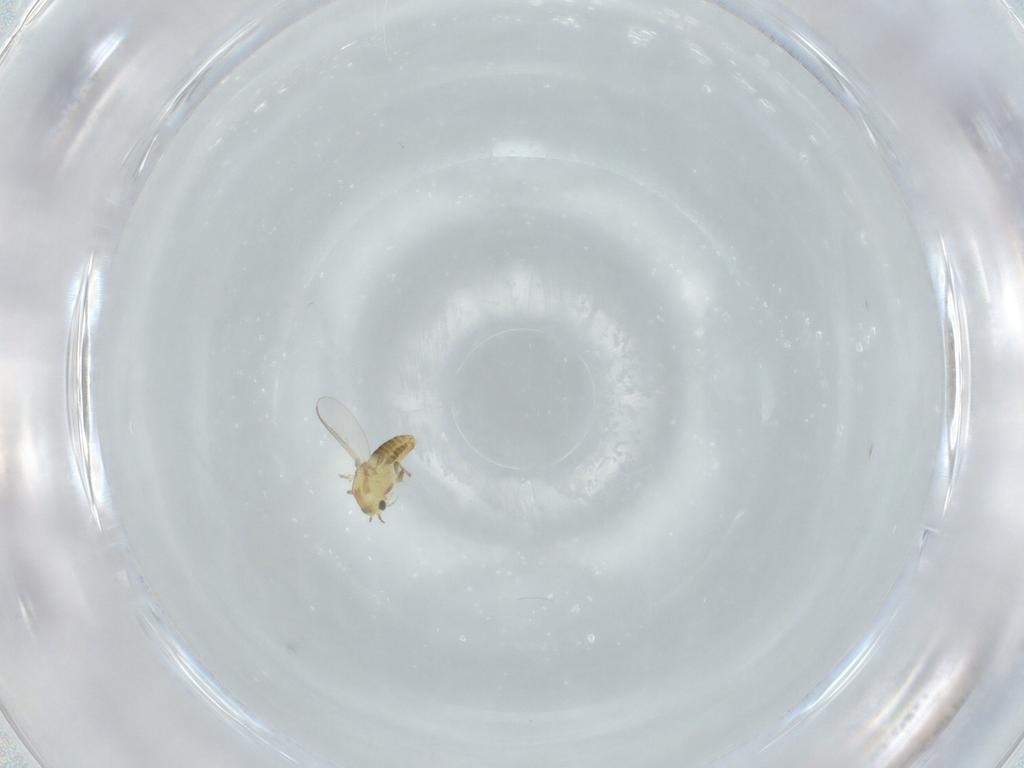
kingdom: Animalia
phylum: Arthropoda
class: Insecta
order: Diptera
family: Chironomidae
